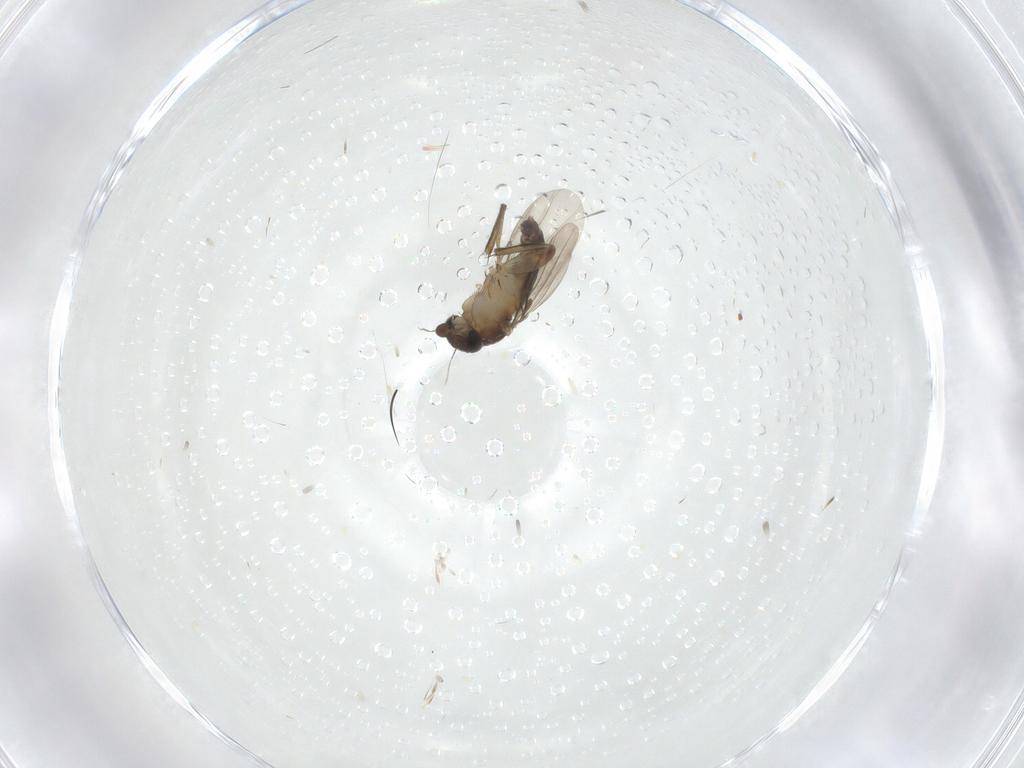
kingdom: Animalia
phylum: Arthropoda
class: Insecta
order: Diptera
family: Phoridae
